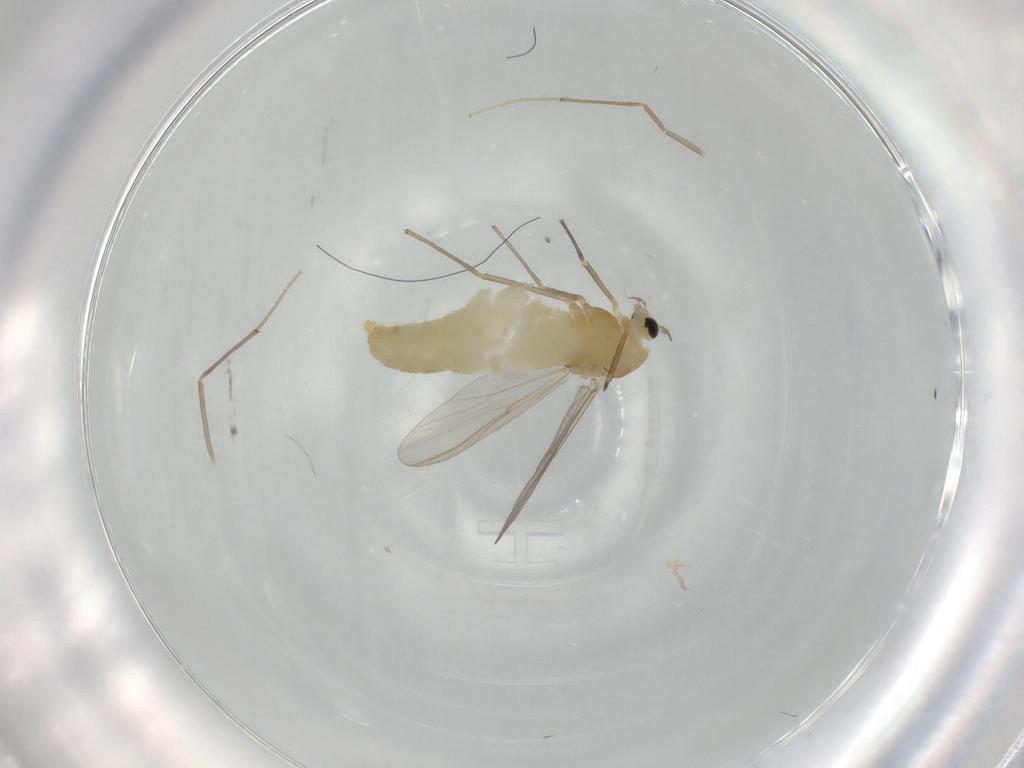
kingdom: Animalia
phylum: Arthropoda
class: Insecta
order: Diptera
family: Chironomidae
